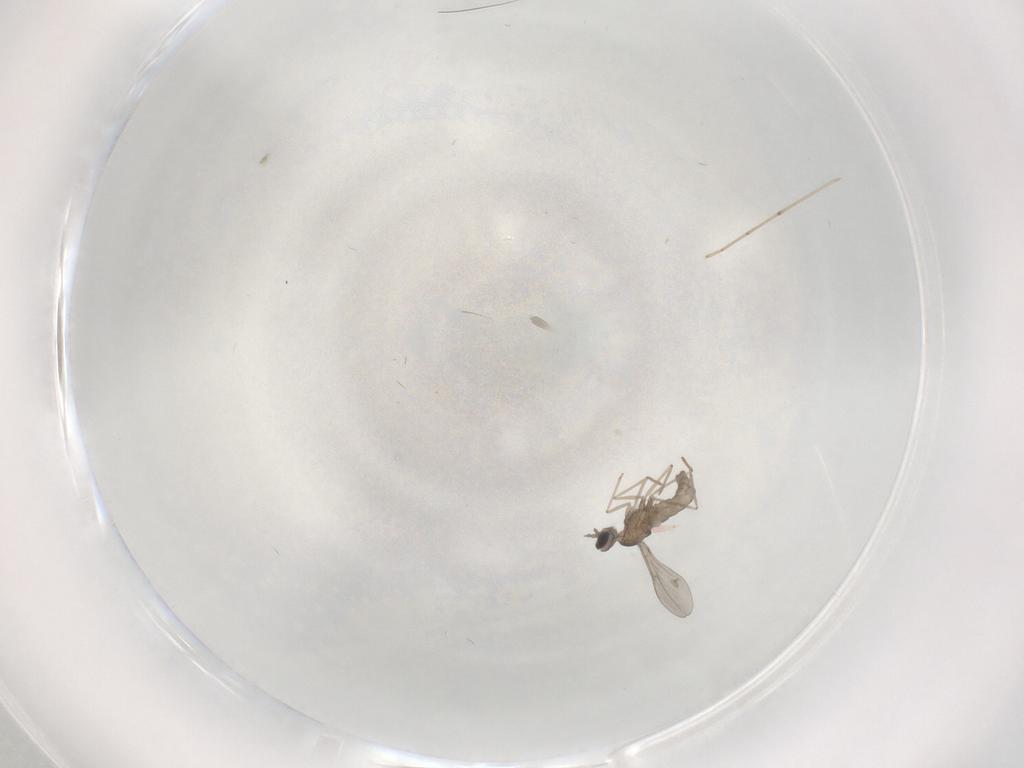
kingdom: Animalia
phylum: Arthropoda
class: Insecta
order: Diptera
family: Cecidomyiidae
